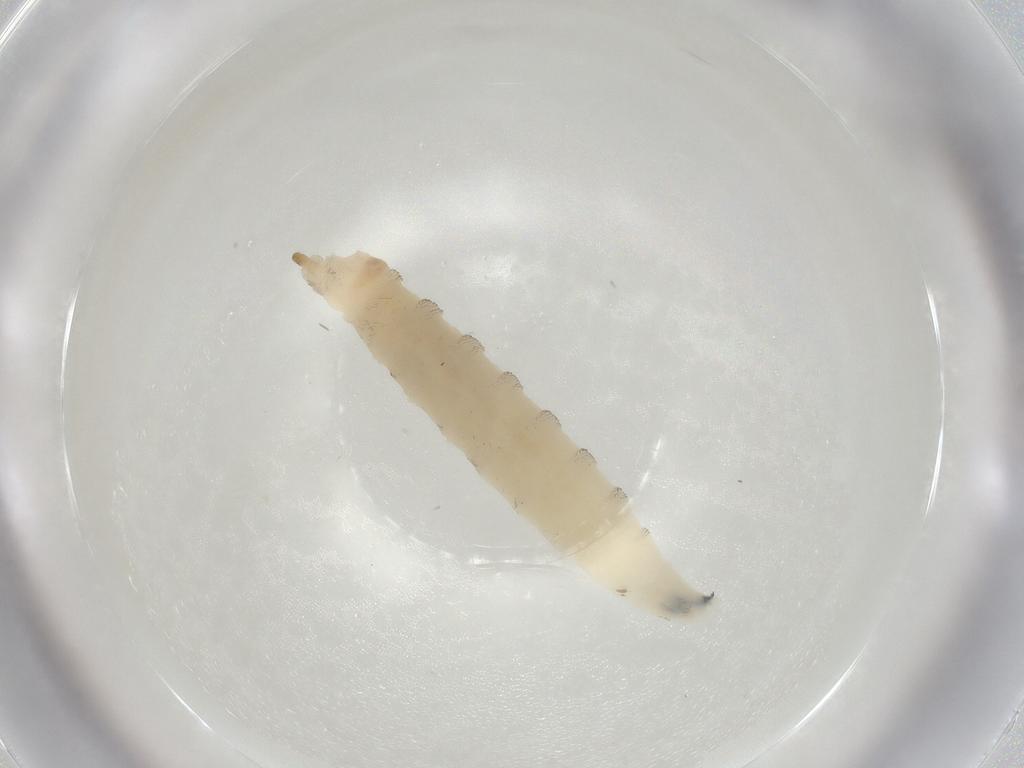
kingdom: Animalia
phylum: Arthropoda
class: Insecta
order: Diptera
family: Drosophilidae
